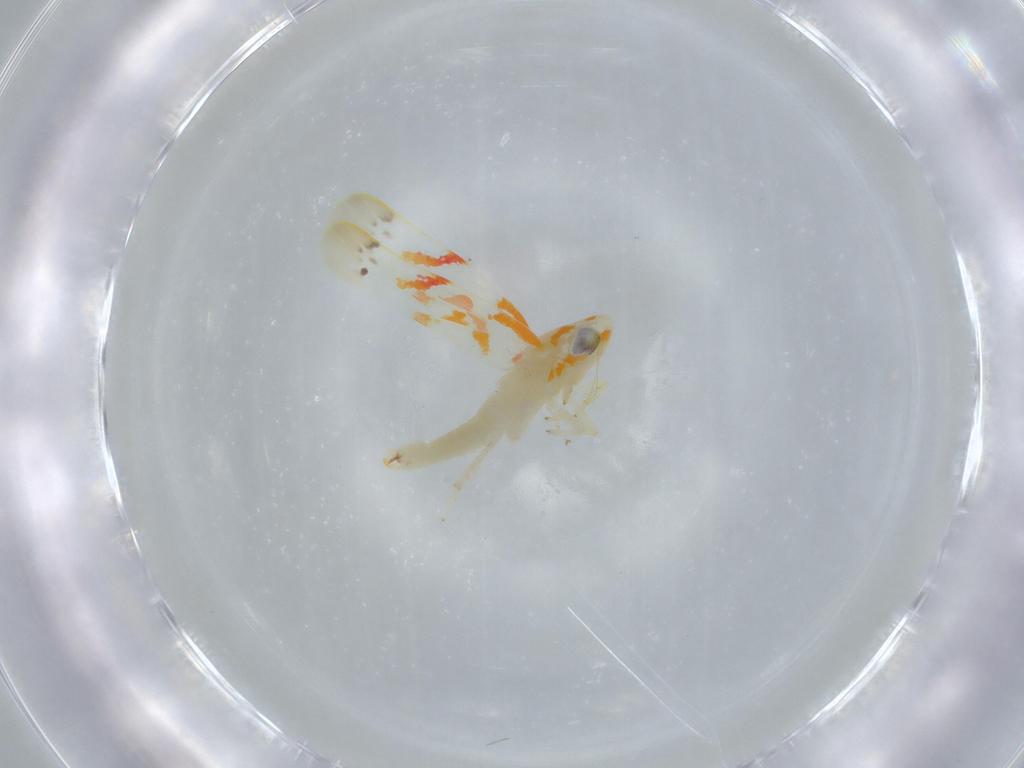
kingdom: Animalia
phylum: Arthropoda
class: Insecta
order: Hemiptera
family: Cicadellidae
